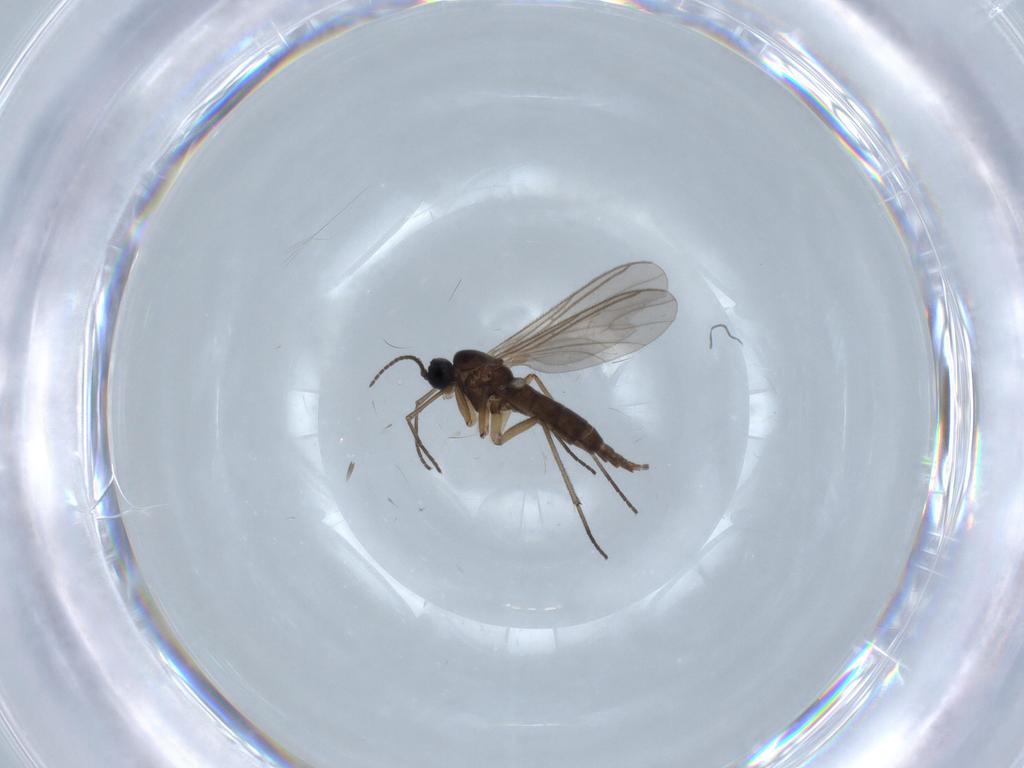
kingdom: Animalia
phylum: Arthropoda
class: Insecta
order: Diptera
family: Sciaridae
